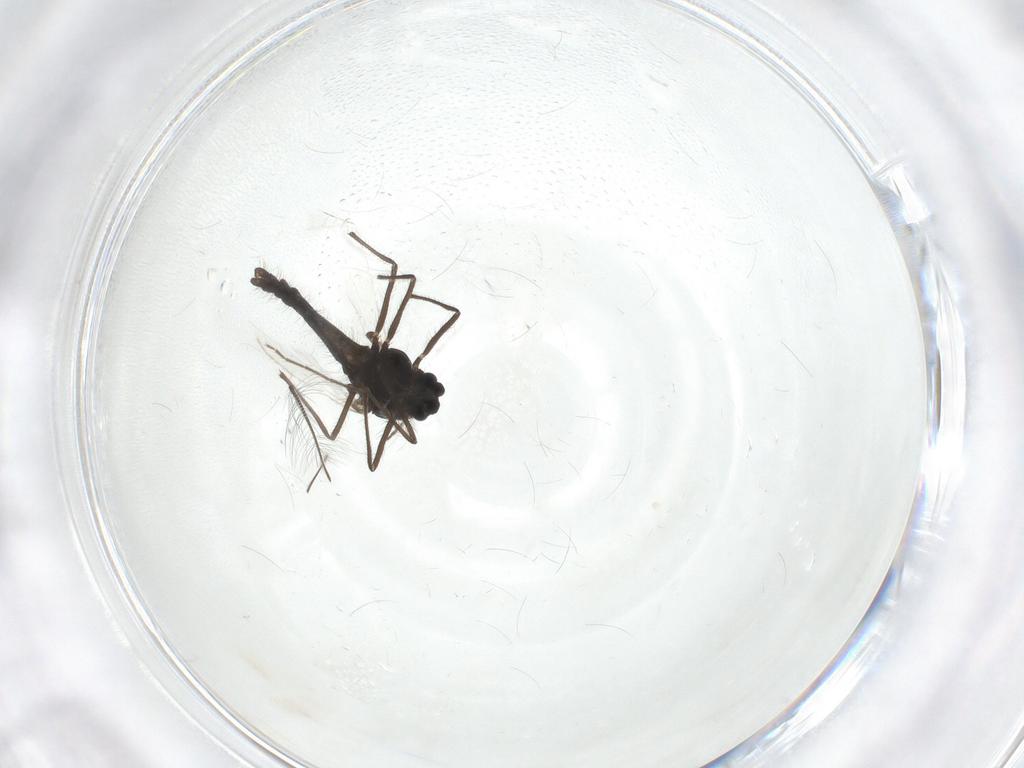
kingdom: Animalia
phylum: Arthropoda
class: Insecta
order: Diptera
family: Chironomidae
